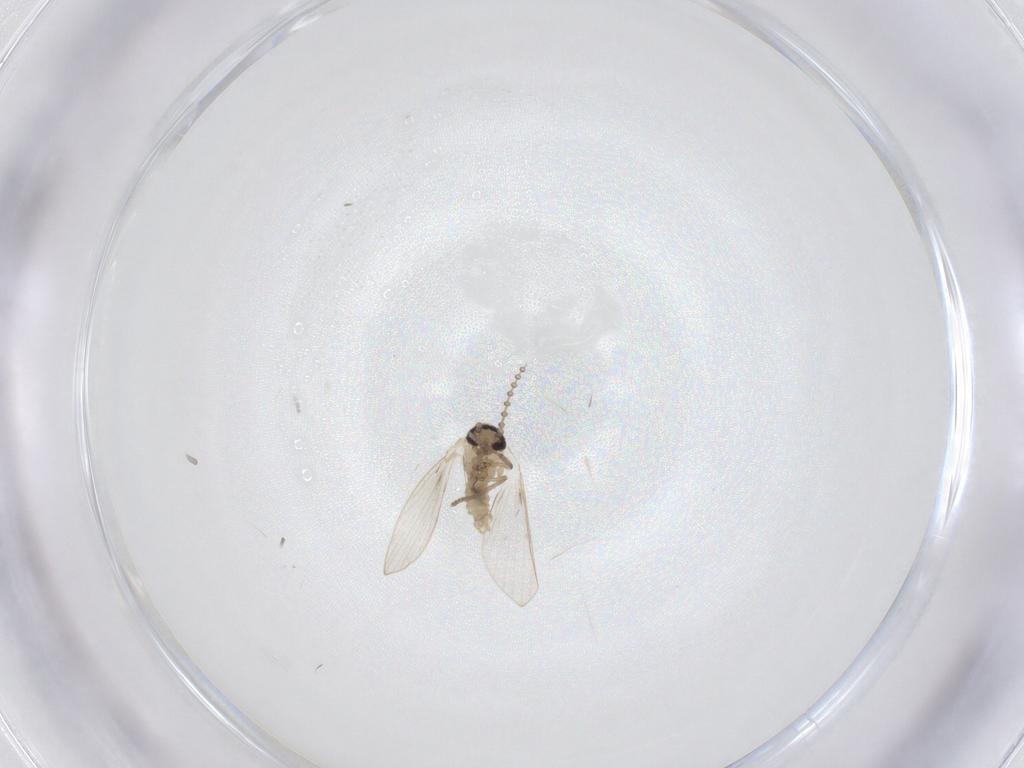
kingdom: Animalia
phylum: Arthropoda
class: Insecta
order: Diptera
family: Psychodidae
